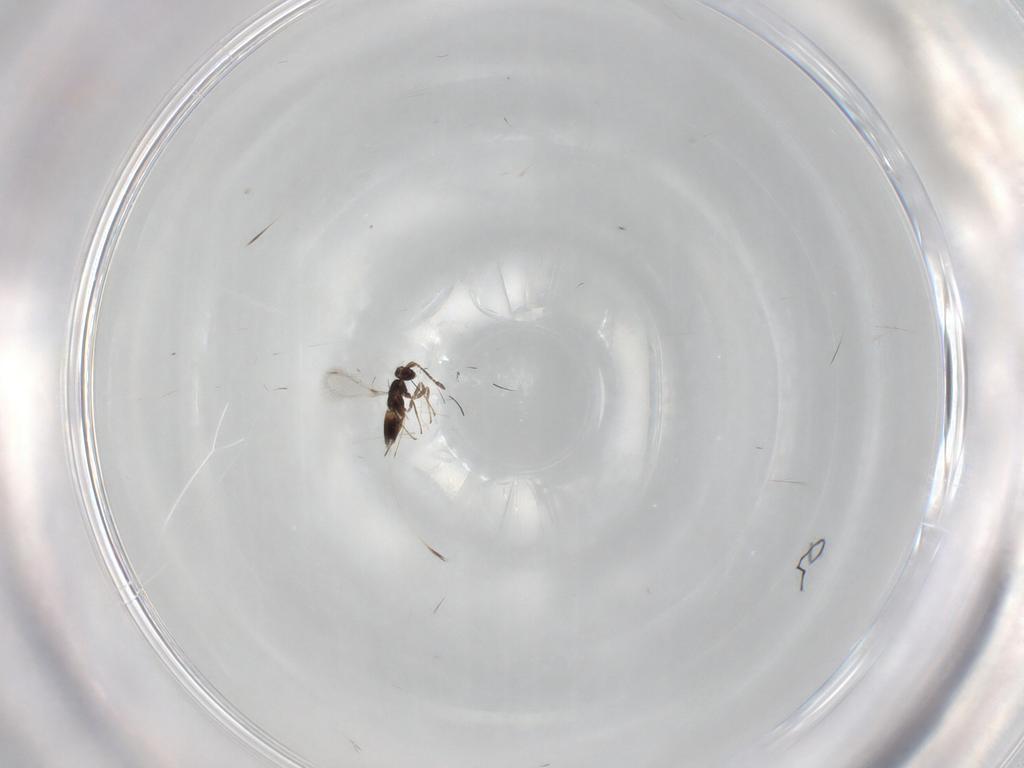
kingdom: Animalia
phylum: Arthropoda
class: Insecta
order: Hymenoptera
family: Mymaridae
